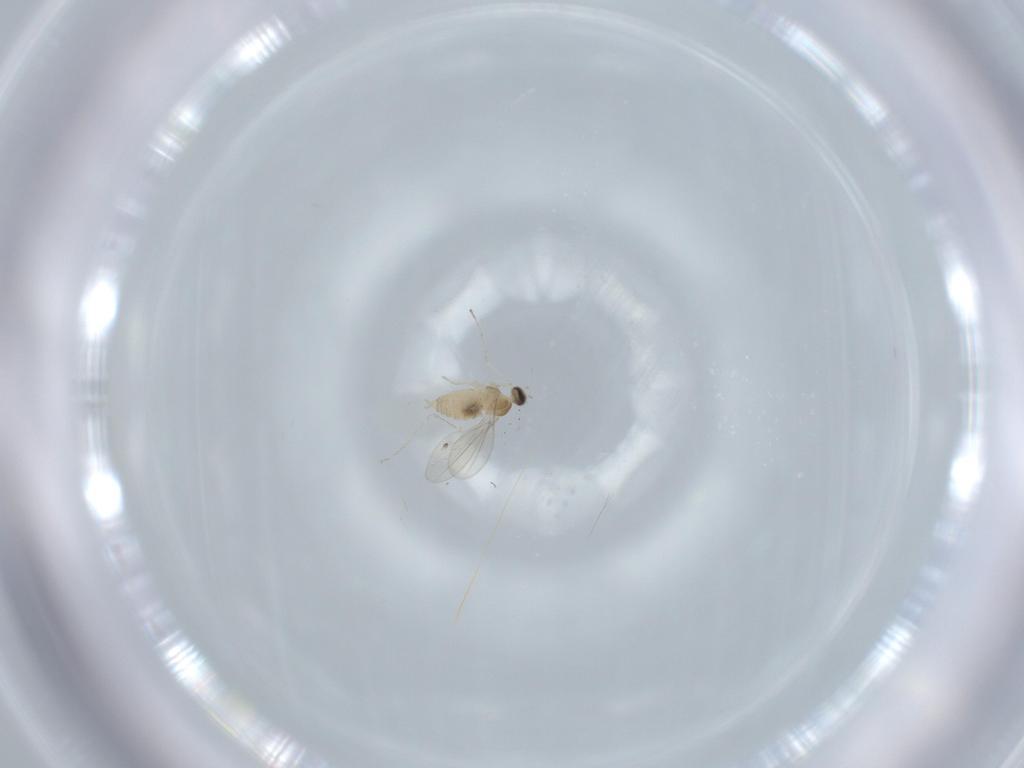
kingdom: Animalia
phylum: Arthropoda
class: Insecta
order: Diptera
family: Cecidomyiidae
